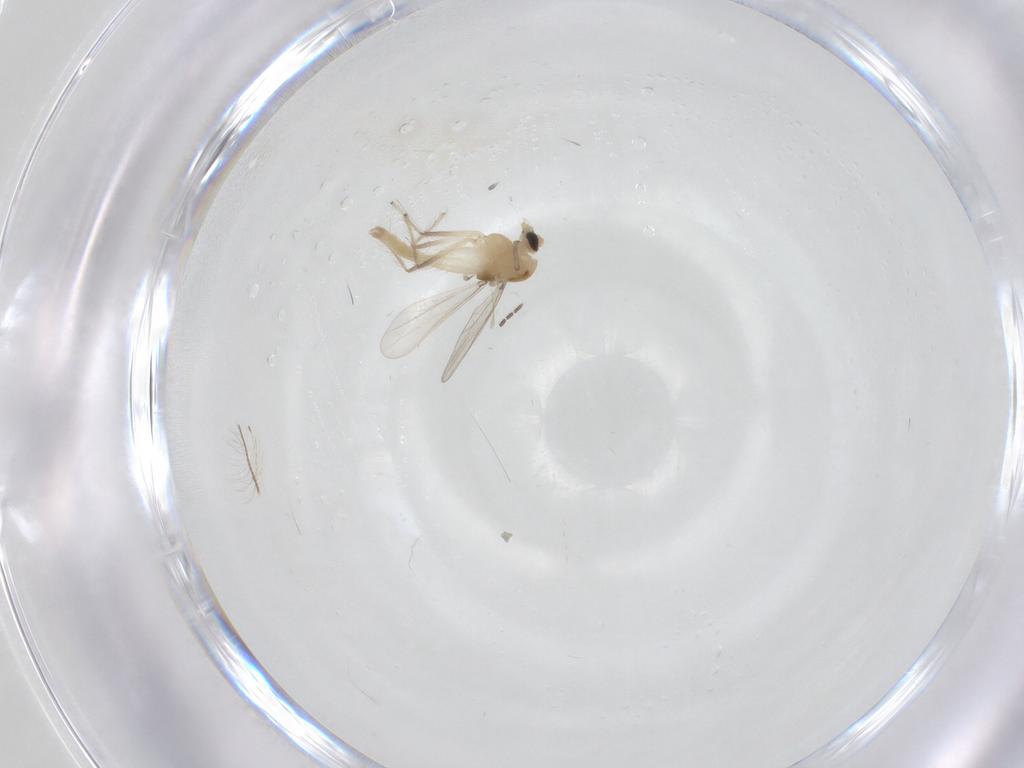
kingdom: Animalia
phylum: Arthropoda
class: Insecta
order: Diptera
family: Chironomidae
